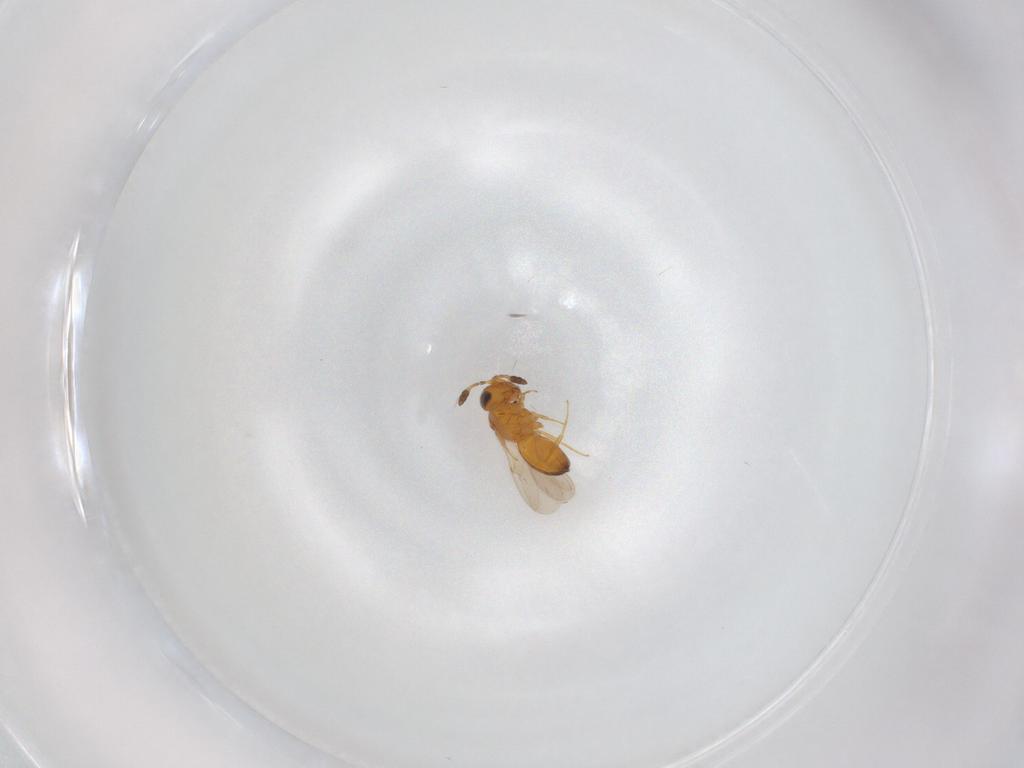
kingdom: Animalia
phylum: Arthropoda
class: Insecta
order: Hymenoptera
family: Scelionidae
